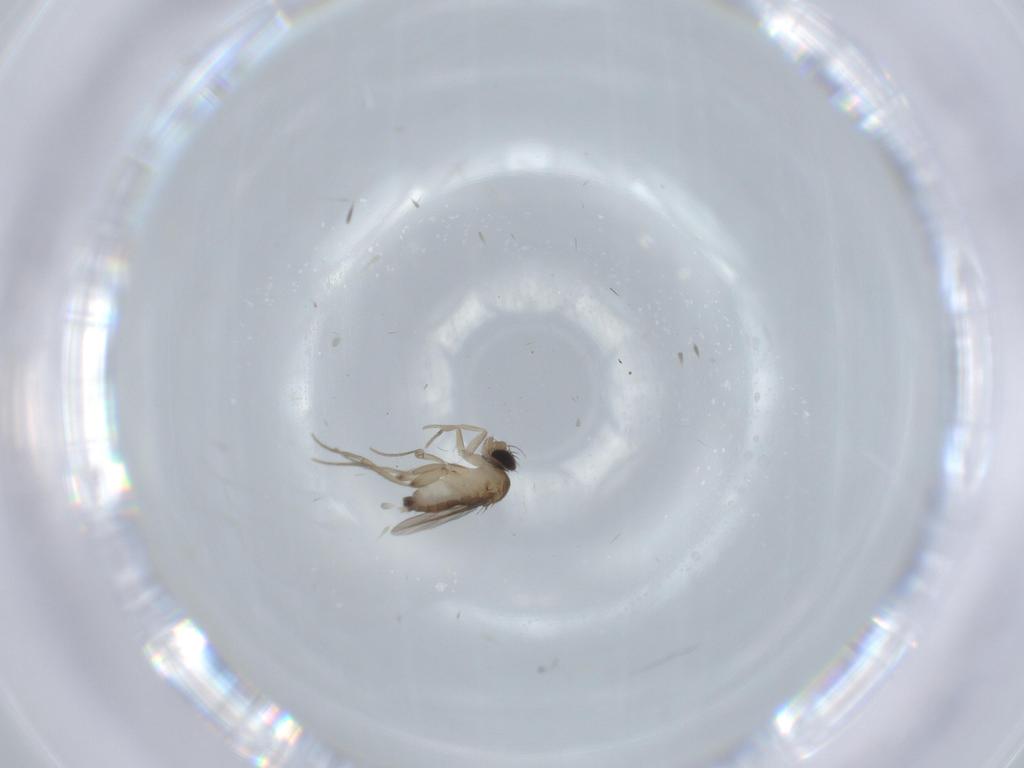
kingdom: Animalia
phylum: Arthropoda
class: Insecta
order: Diptera
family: Phoridae
